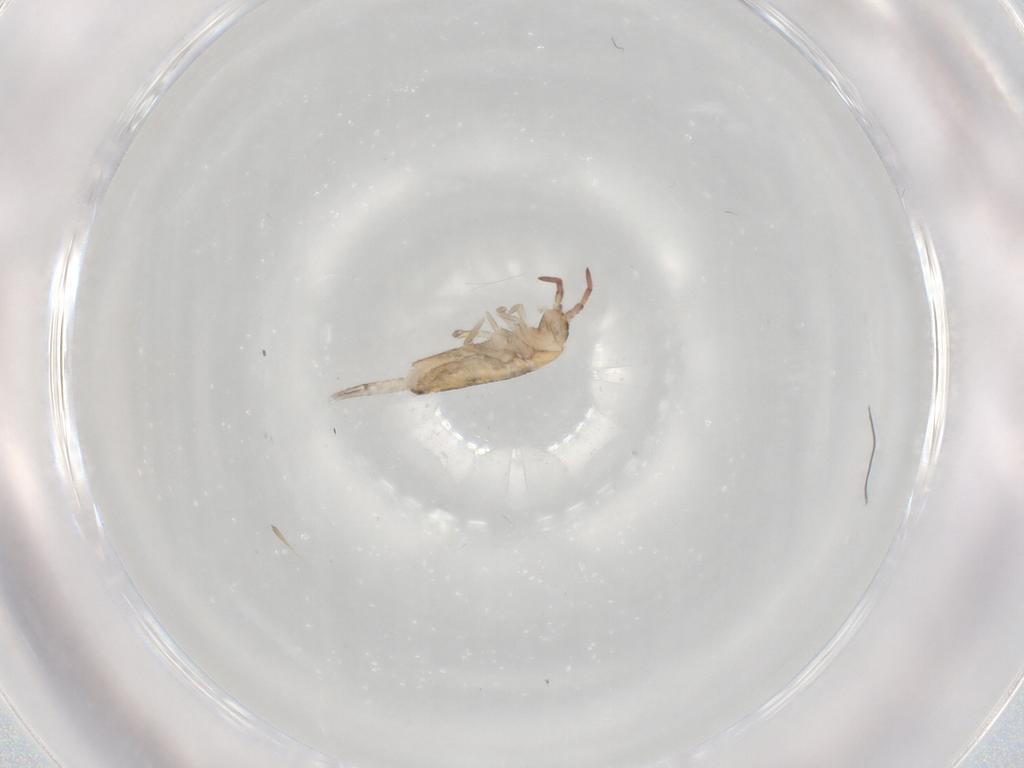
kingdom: Animalia
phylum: Arthropoda
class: Collembola
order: Entomobryomorpha
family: Entomobryidae
